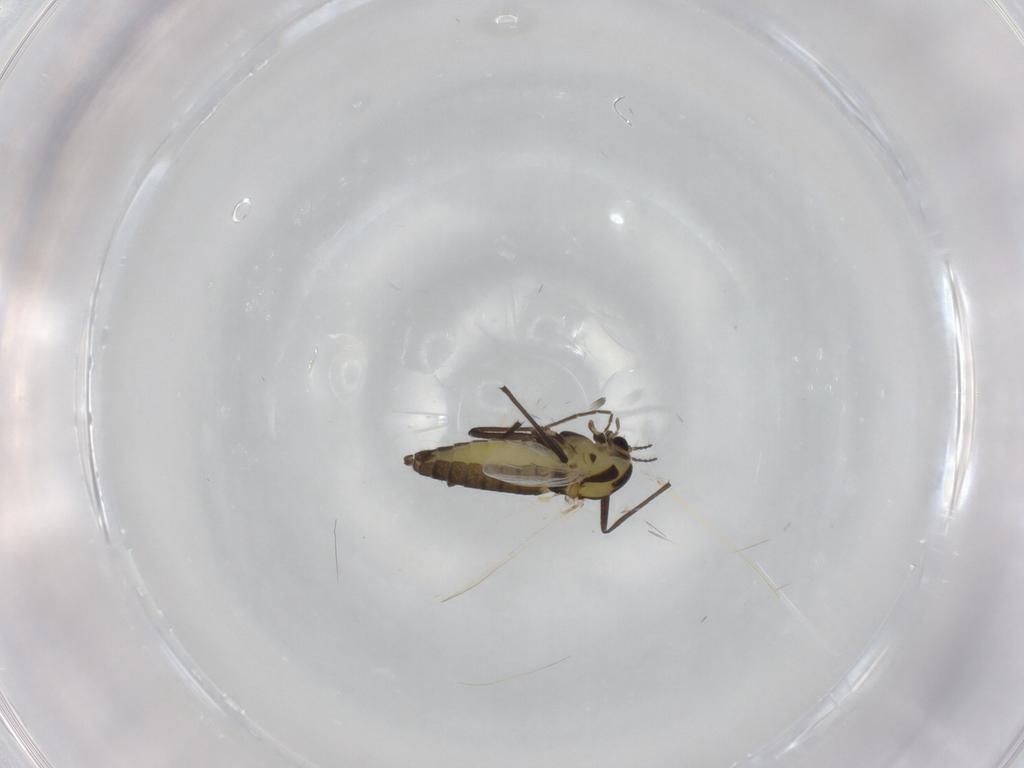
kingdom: Animalia
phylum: Arthropoda
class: Insecta
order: Diptera
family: Chironomidae
